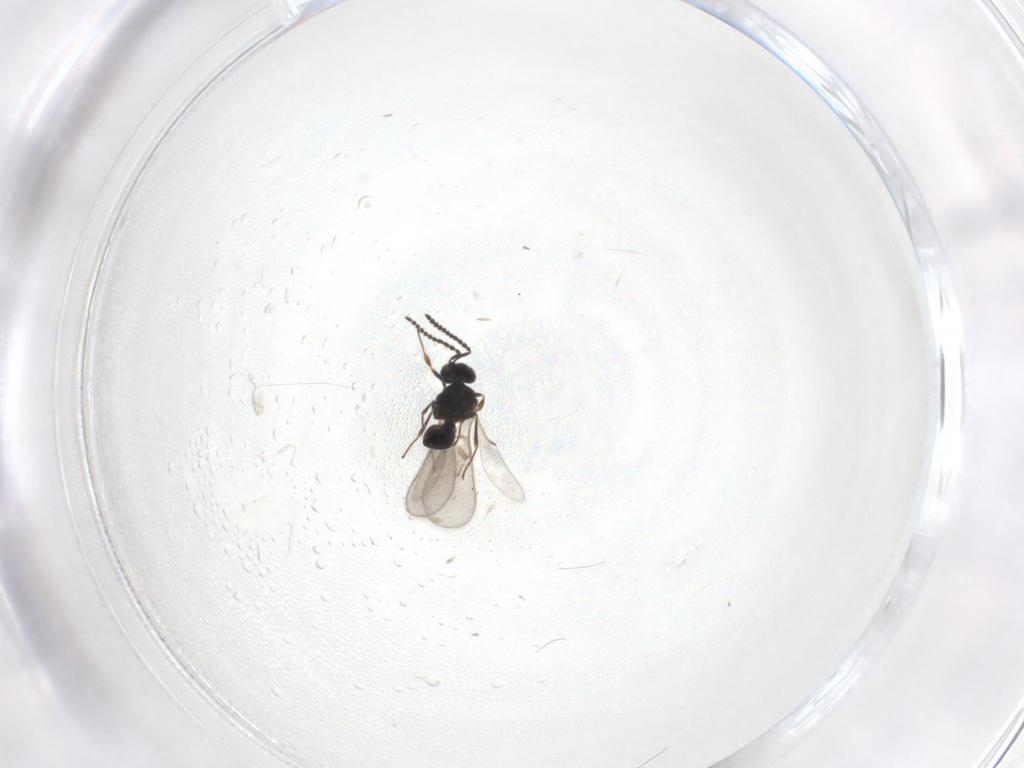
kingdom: Animalia
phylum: Arthropoda
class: Insecta
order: Hymenoptera
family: Scelionidae
